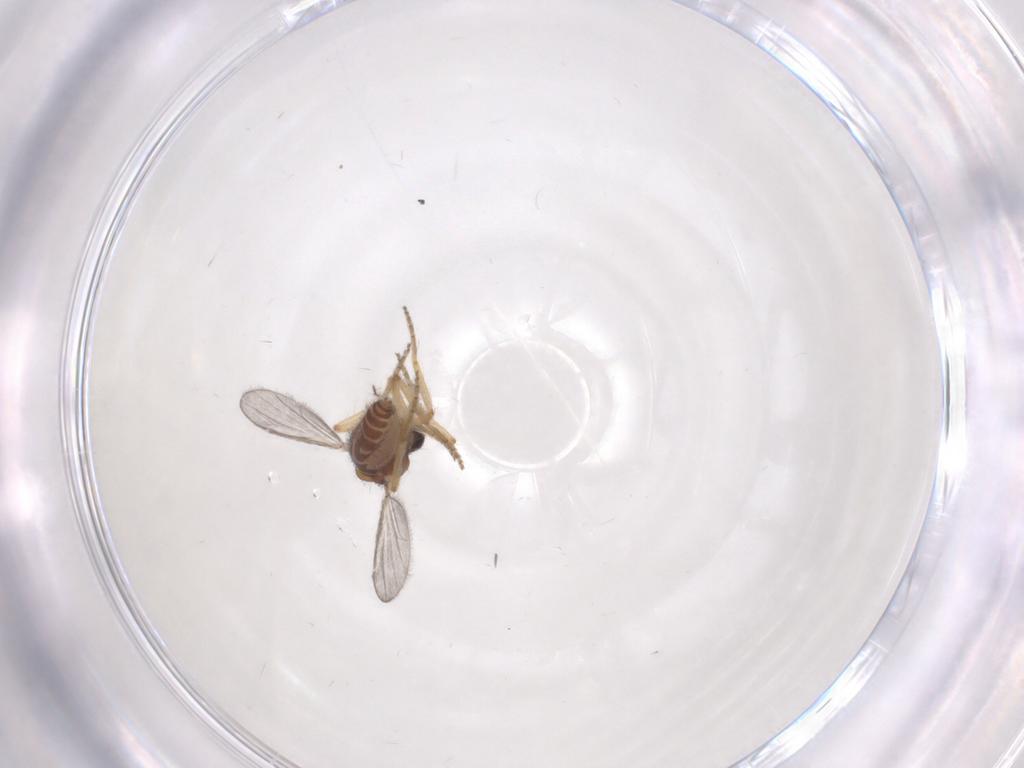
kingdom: Animalia
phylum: Arthropoda
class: Insecta
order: Diptera
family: Ceratopogonidae
